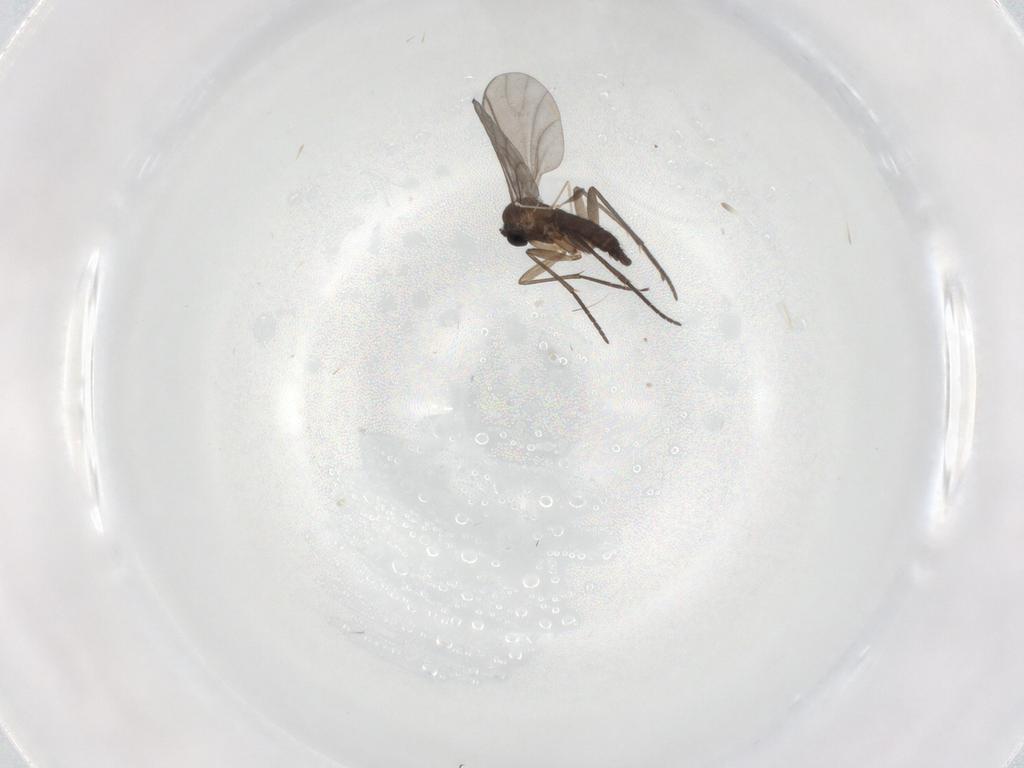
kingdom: Animalia
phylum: Arthropoda
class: Insecta
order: Diptera
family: Sciaridae
